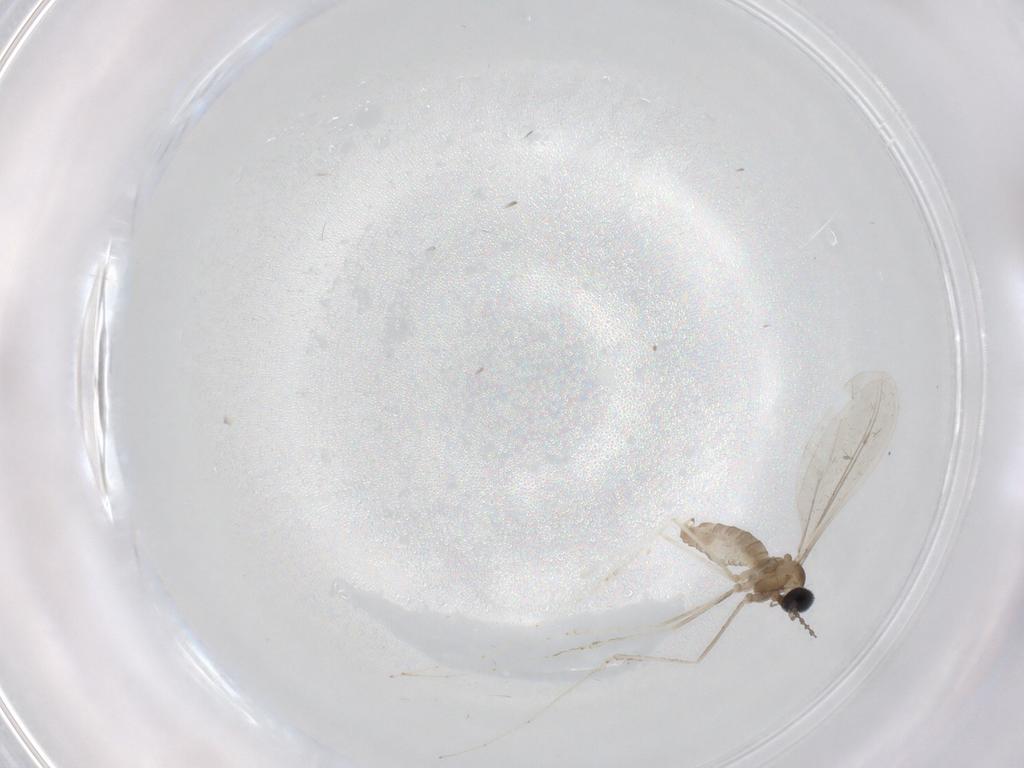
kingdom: Animalia
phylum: Arthropoda
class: Insecta
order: Diptera
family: Cecidomyiidae
